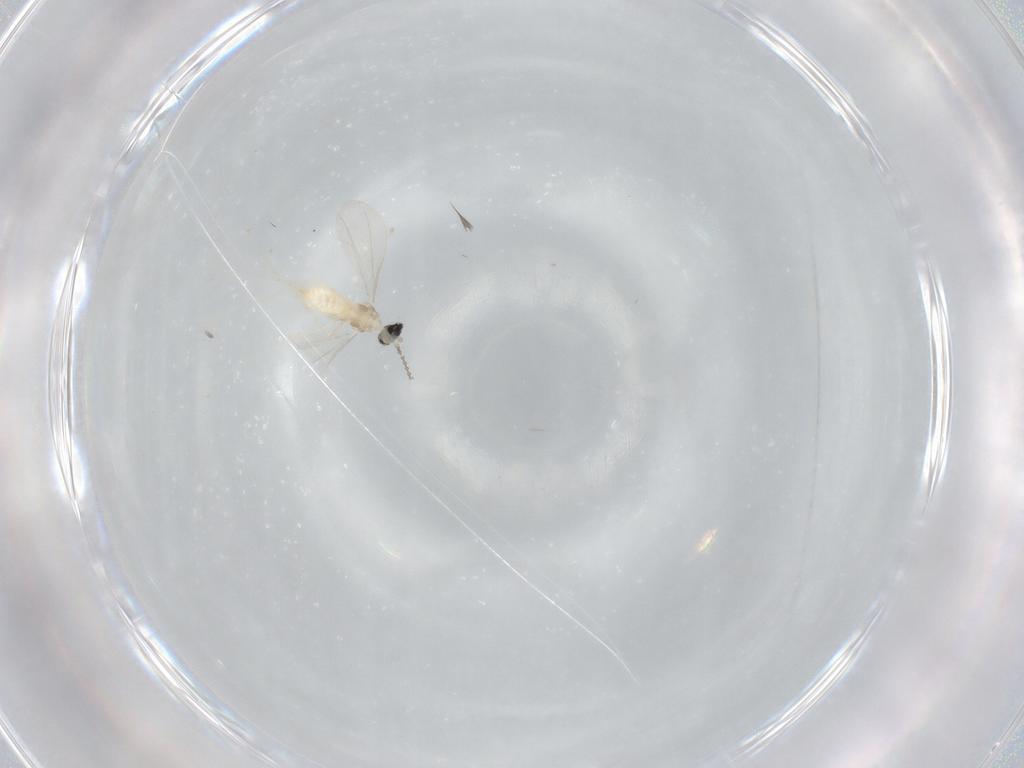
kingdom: Animalia
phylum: Arthropoda
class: Insecta
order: Diptera
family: Cecidomyiidae
